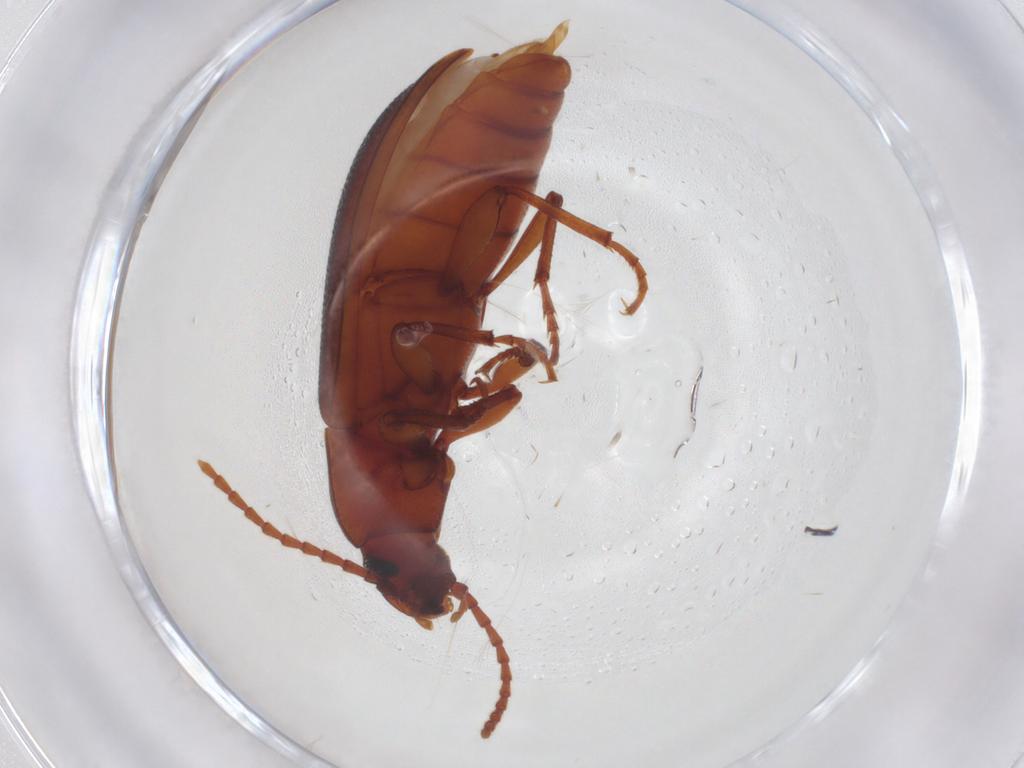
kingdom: Animalia
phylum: Arthropoda
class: Insecta
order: Coleoptera
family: Tenebrionidae
